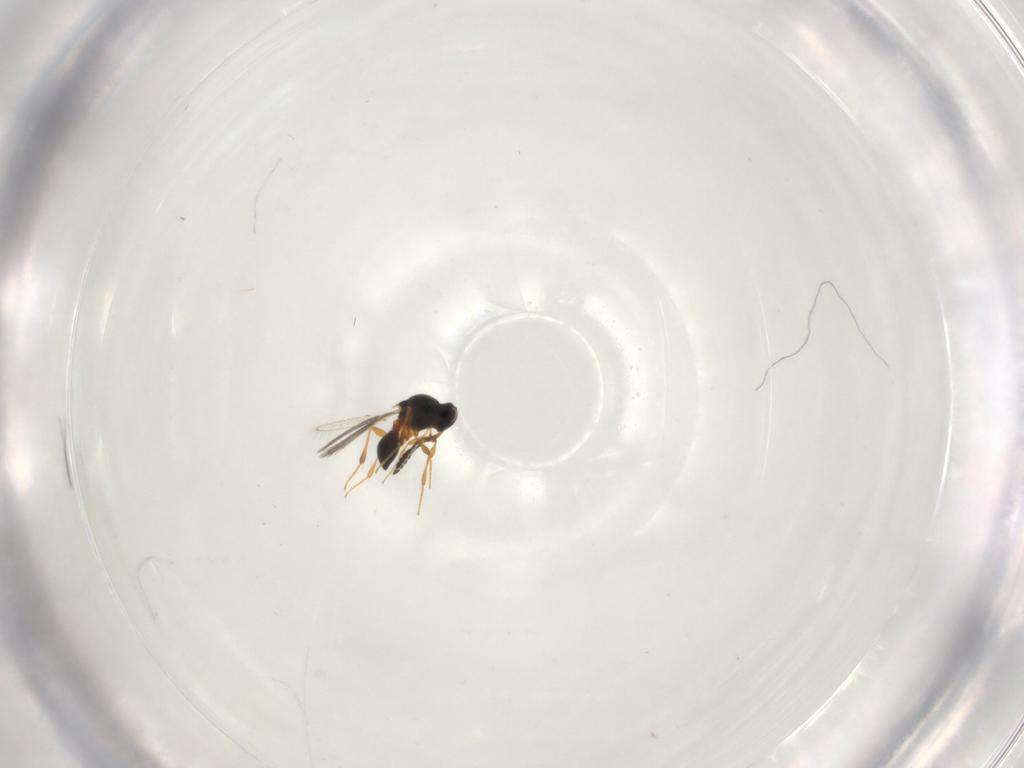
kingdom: Animalia
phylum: Arthropoda
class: Insecta
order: Hymenoptera
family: Platygastridae
